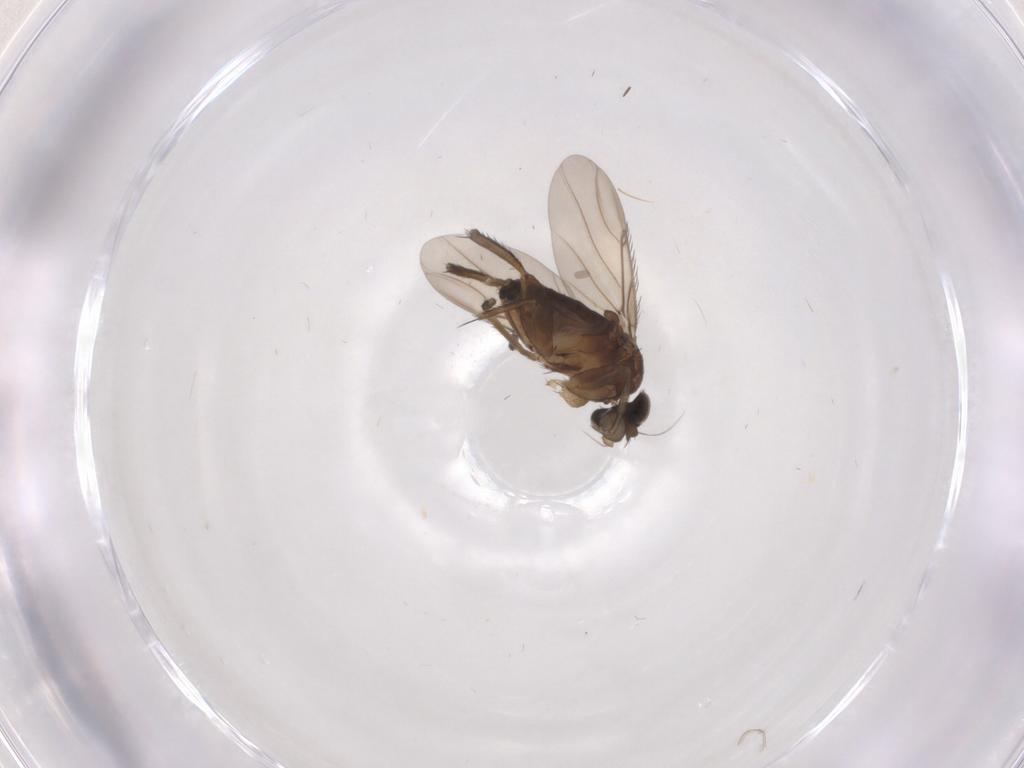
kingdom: Animalia
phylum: Arthropoda
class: Insecta
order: Diptera
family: Phoridae
